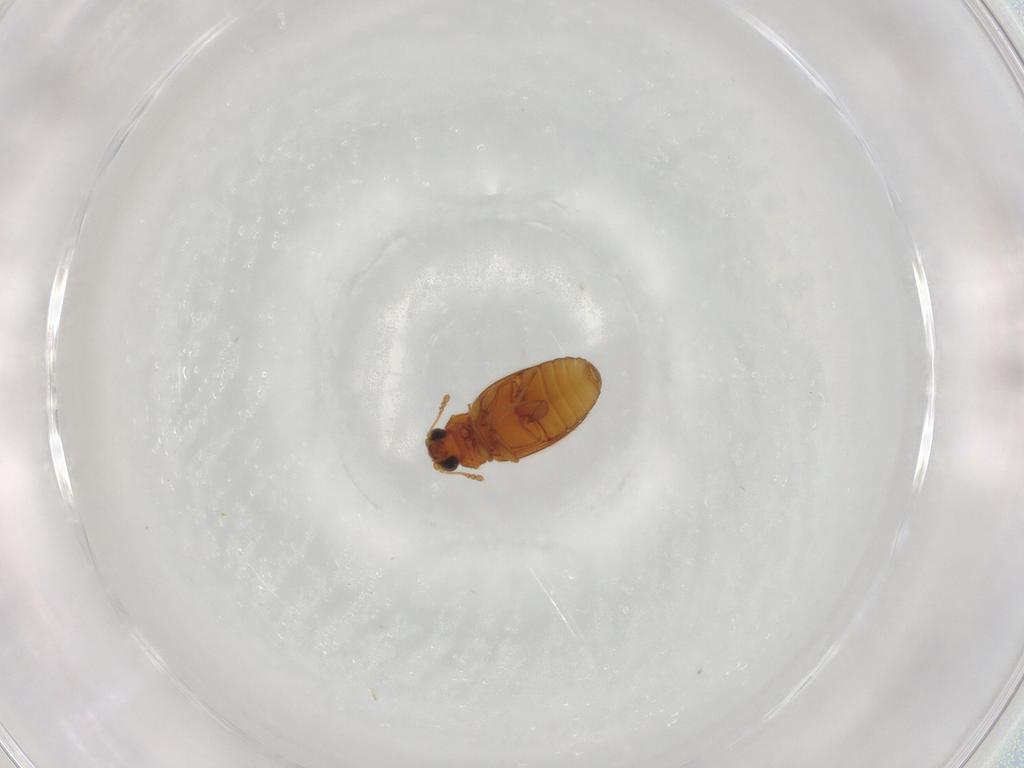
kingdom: Animalia
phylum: Arthropoda
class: Insecta
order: Coleoptera
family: Latridiidae
